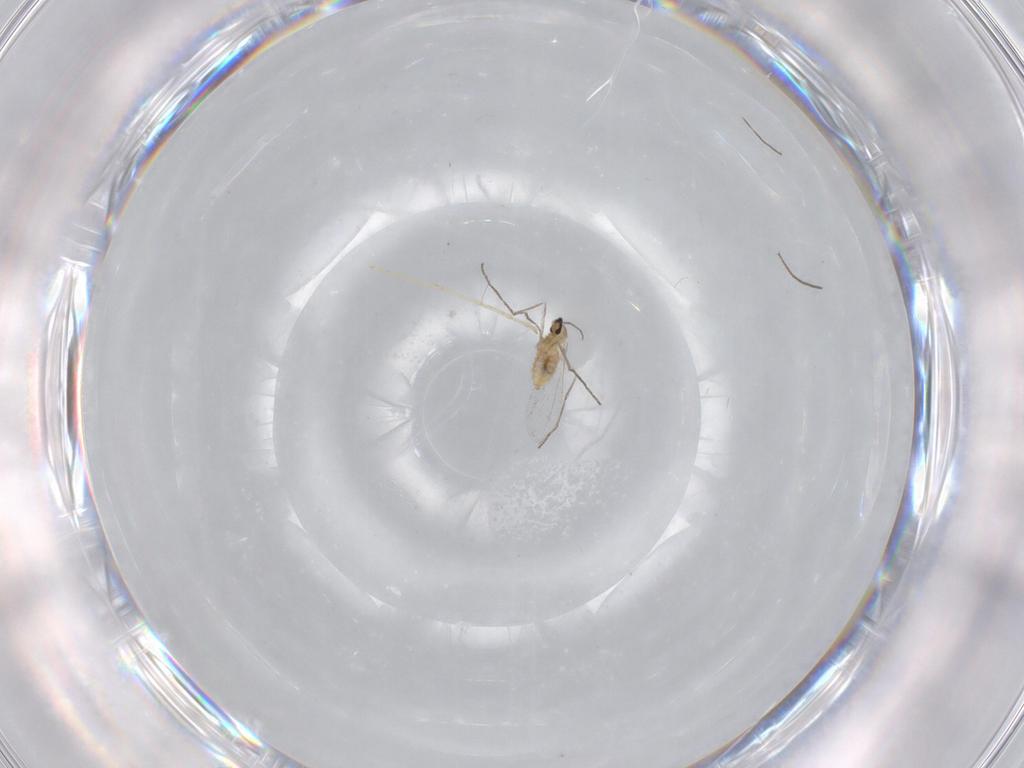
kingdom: Animalia
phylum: Arthropoda
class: Insecta
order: Diptera
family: Cecidomyiidae
